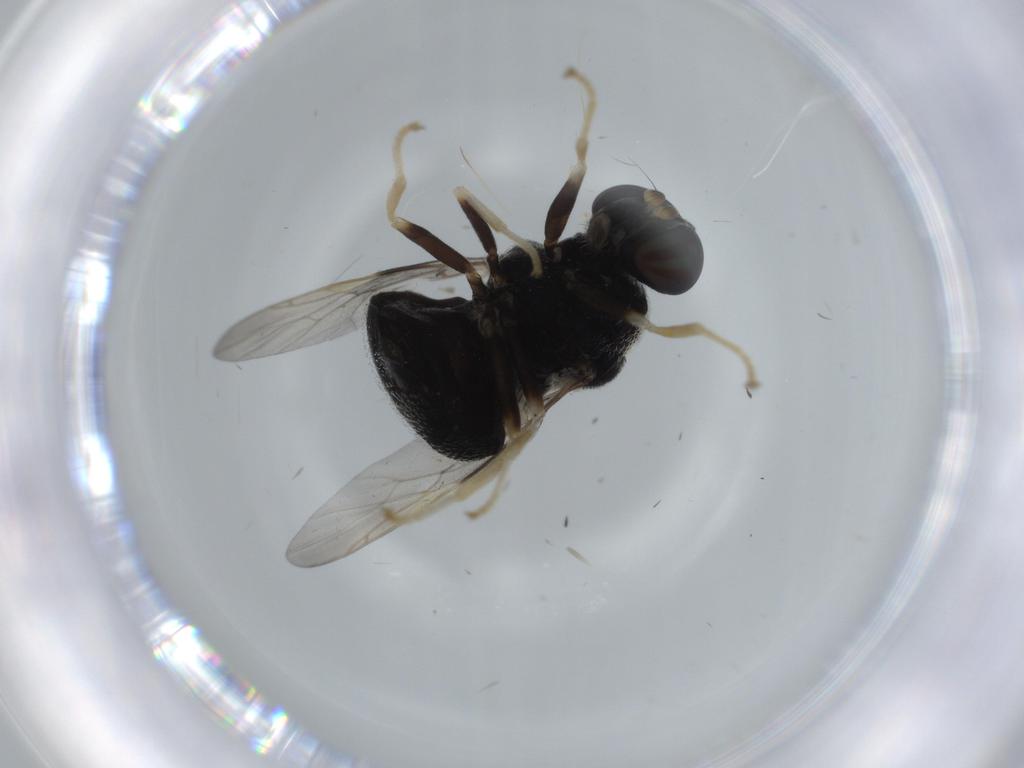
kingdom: Animalia
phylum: Arthropoda
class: Insecta
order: Diptera
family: Stratiomyidae
